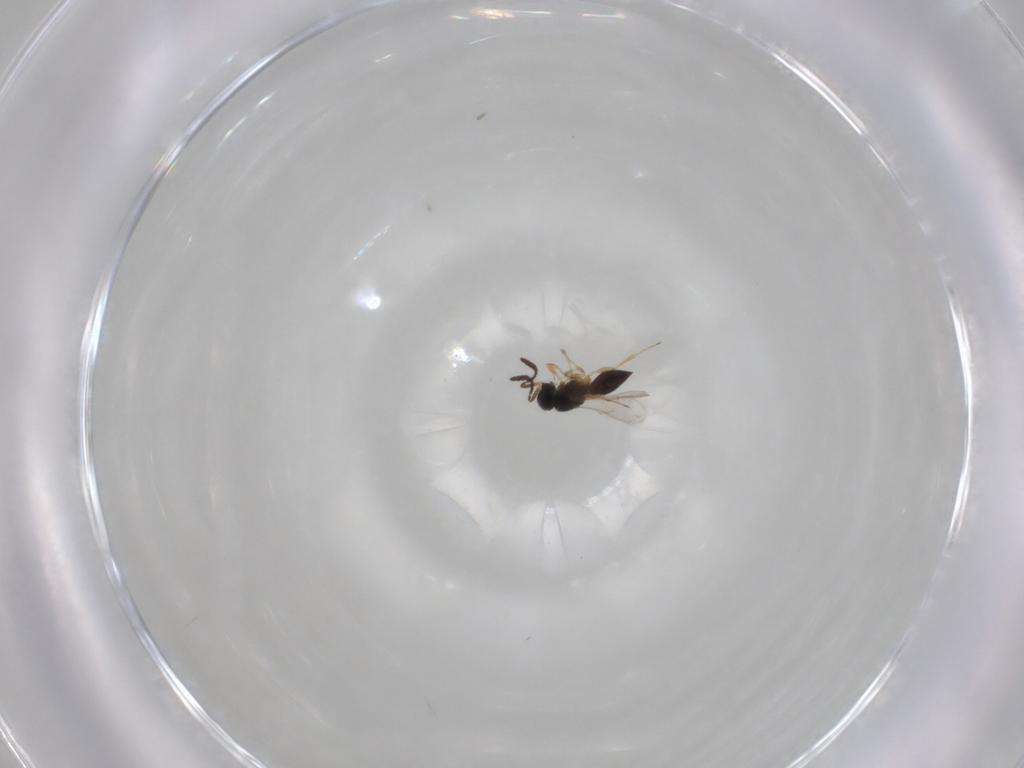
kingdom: Animalia
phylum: Arthropoda
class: Insecta
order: Hymenoptera
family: Scelionidae
